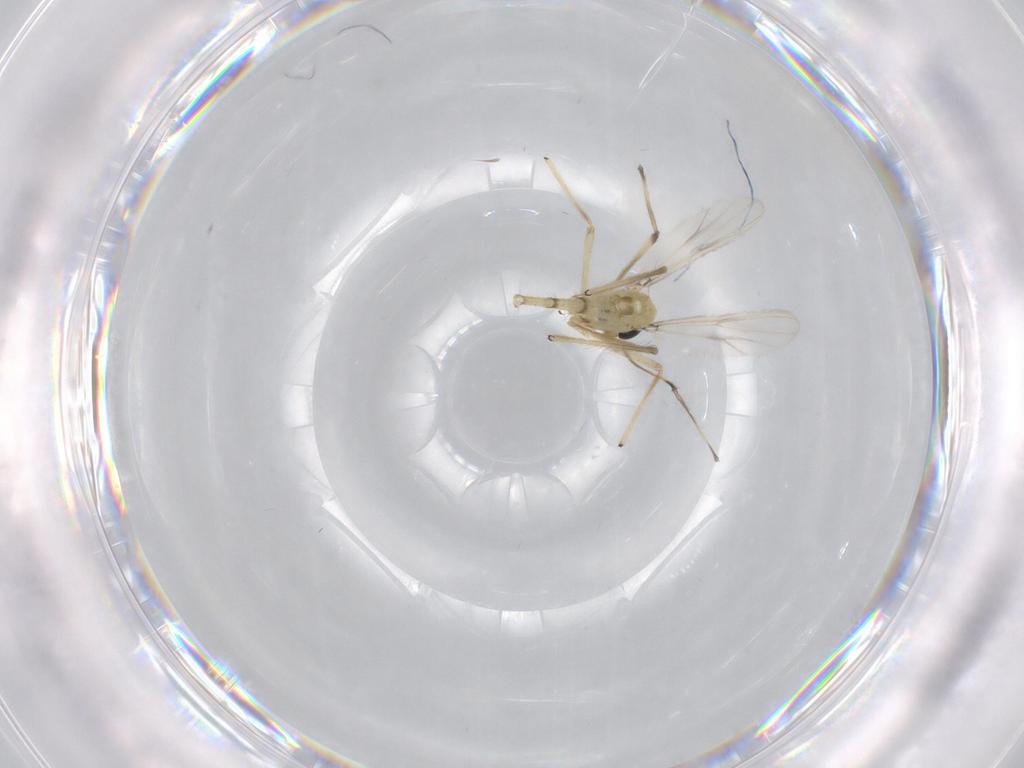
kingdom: Animalia
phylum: Arthropoda
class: Insecta
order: Diptera
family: Chironomidae
